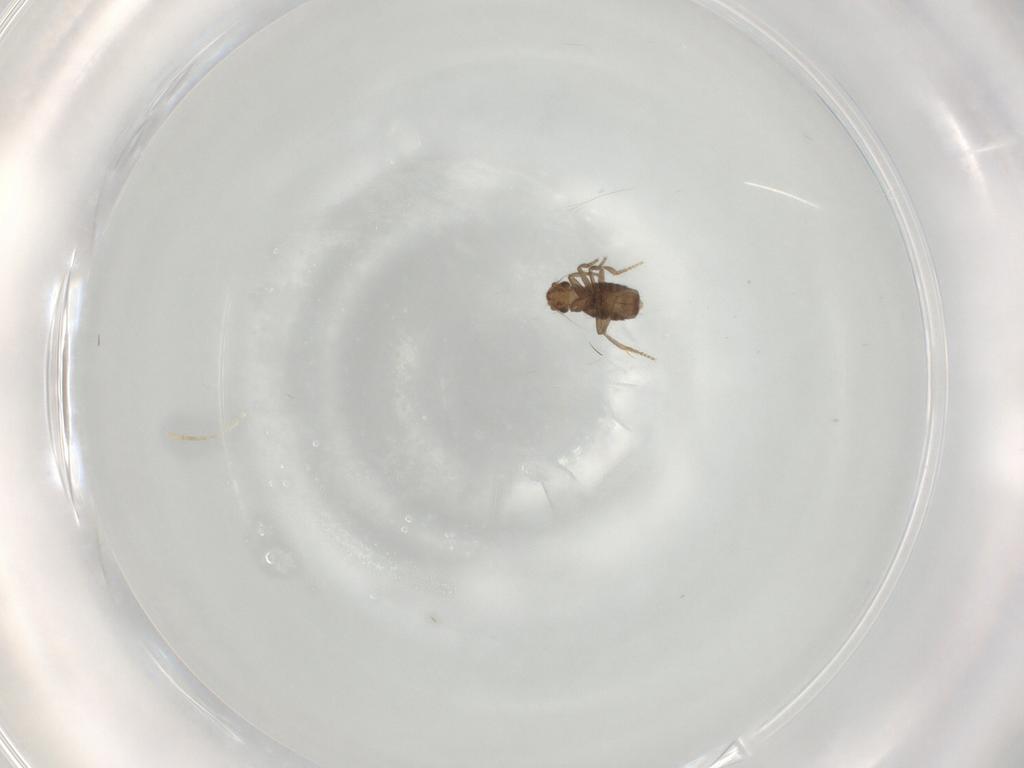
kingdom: Animalia
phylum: Arthropoda
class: Insecta
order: Diptera
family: Phoridae
